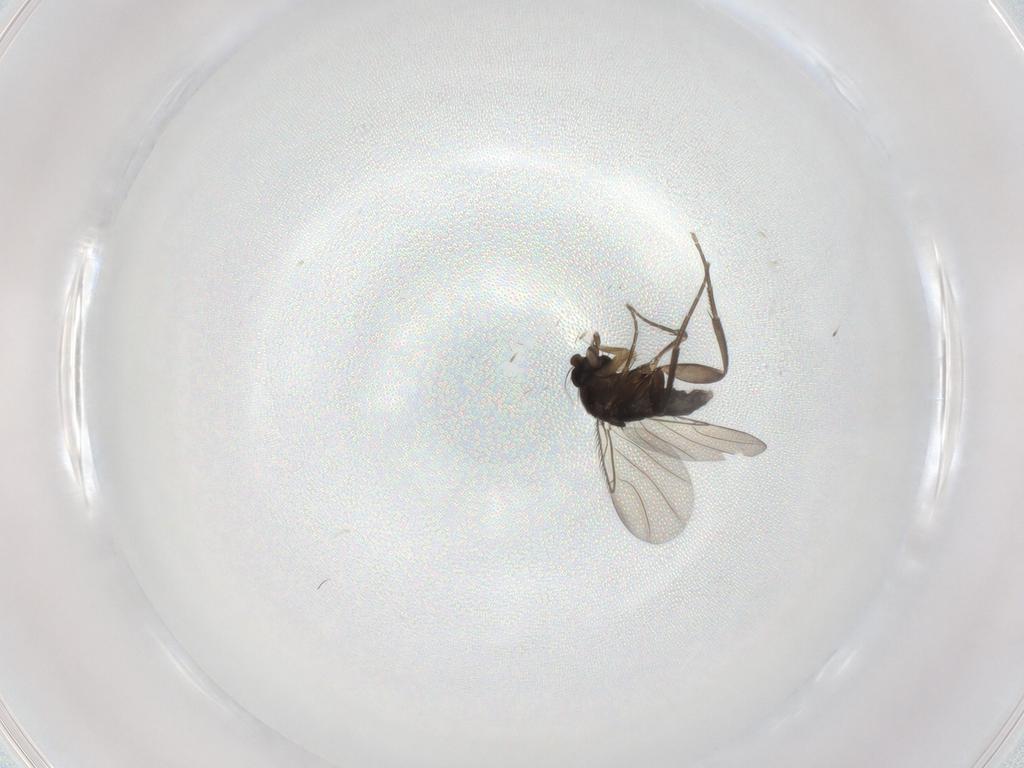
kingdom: Animalia
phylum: Arthropoda
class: Insecta
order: Diptera
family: Phoridae
